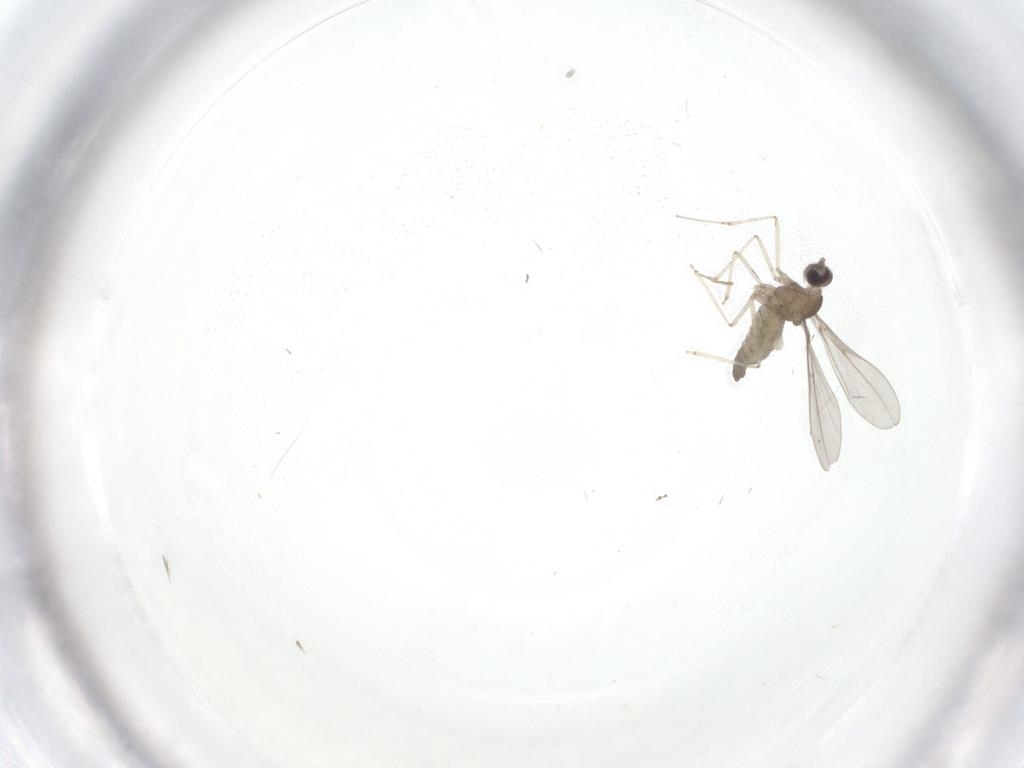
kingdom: Animalia
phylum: Arthropoda
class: Insecta
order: Diptera
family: Cecidomyiidae
